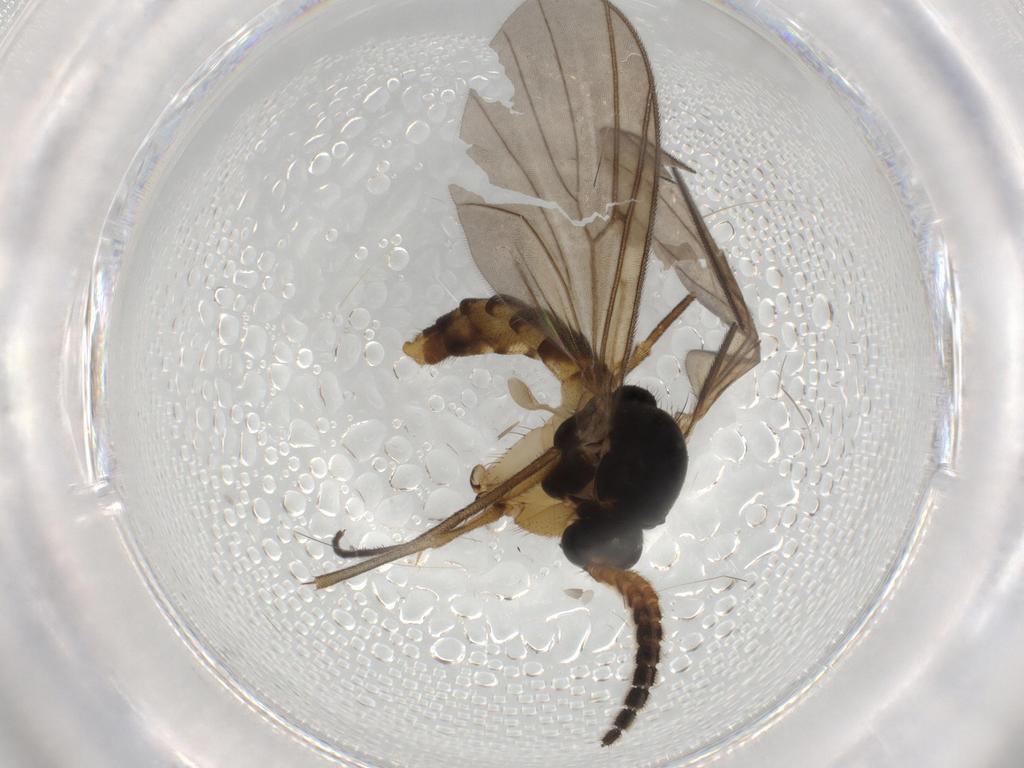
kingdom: Animalia
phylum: Arthropoda
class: Insecta
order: Diptera
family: Sciaridae
